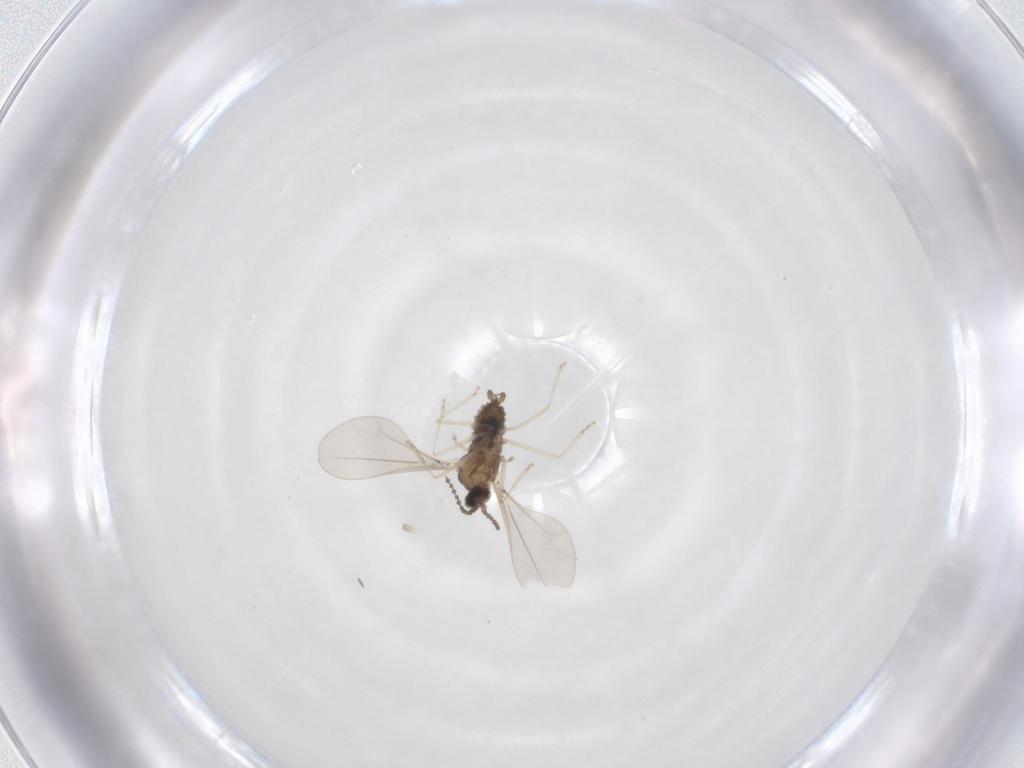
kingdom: Animalia
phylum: Arthropoda
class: Insecta
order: Diptera
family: Cecidomyiidae
